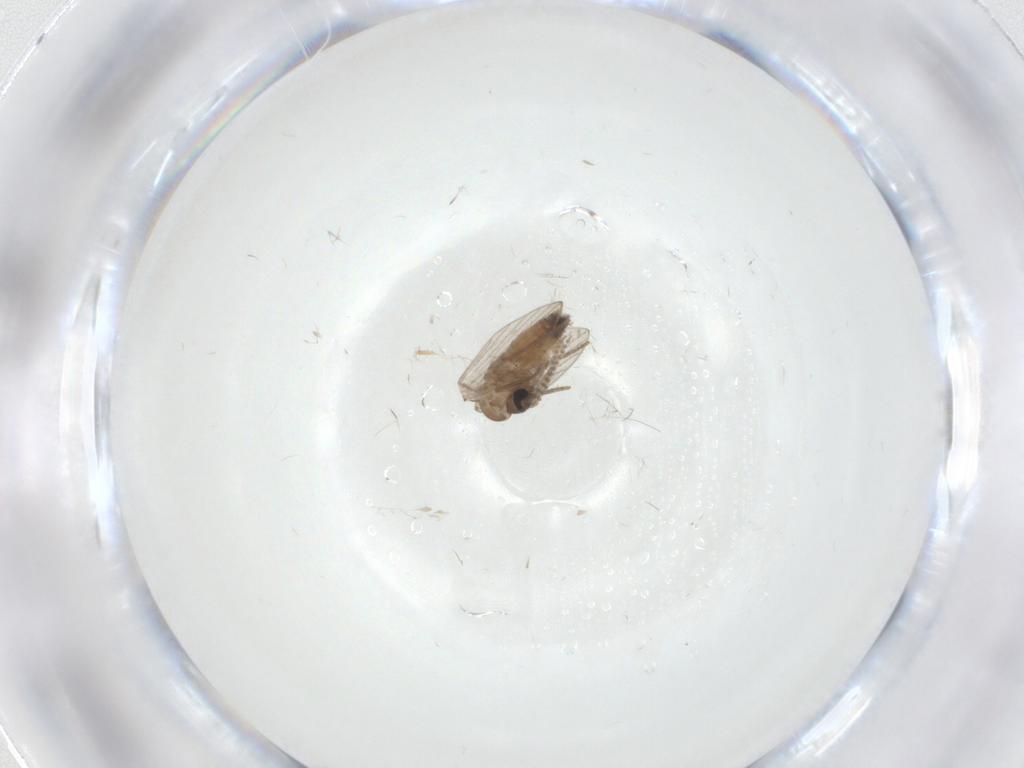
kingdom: Animalia
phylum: Arthropoda
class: Insecta
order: Diptera
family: Psychodidae
